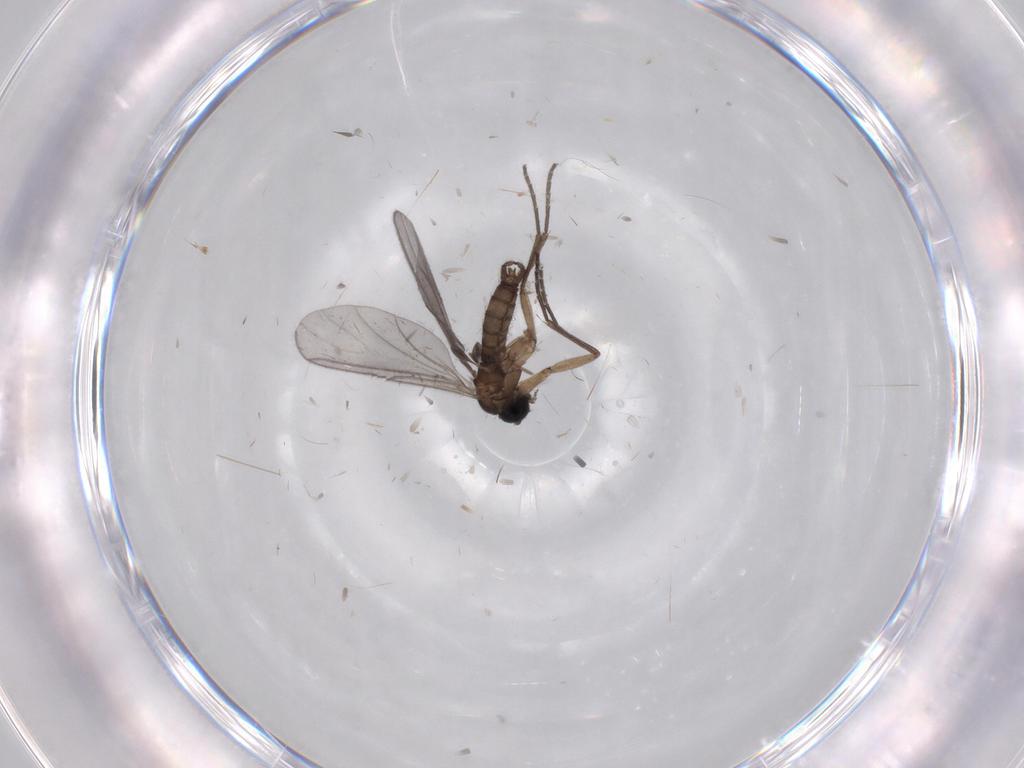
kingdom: Animalia
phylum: Arthropoda
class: Insecta
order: Diptera
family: Sciaridae
